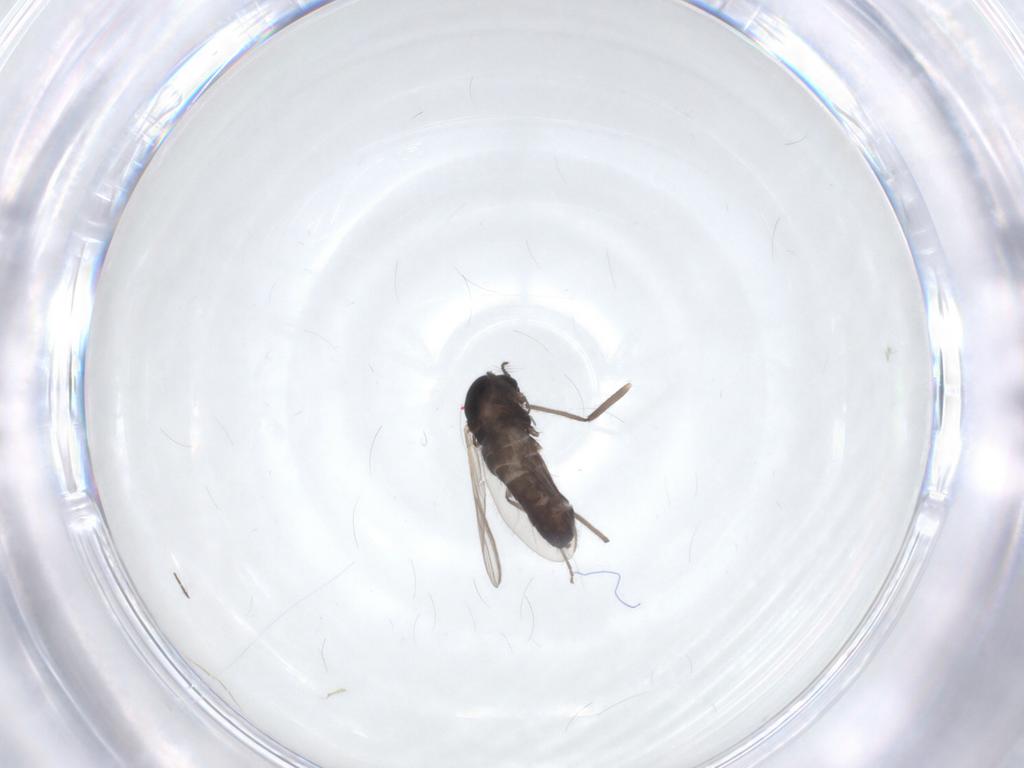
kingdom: Animalia
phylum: Arthropoda
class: Insecta
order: Diptera
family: Chironomidae
